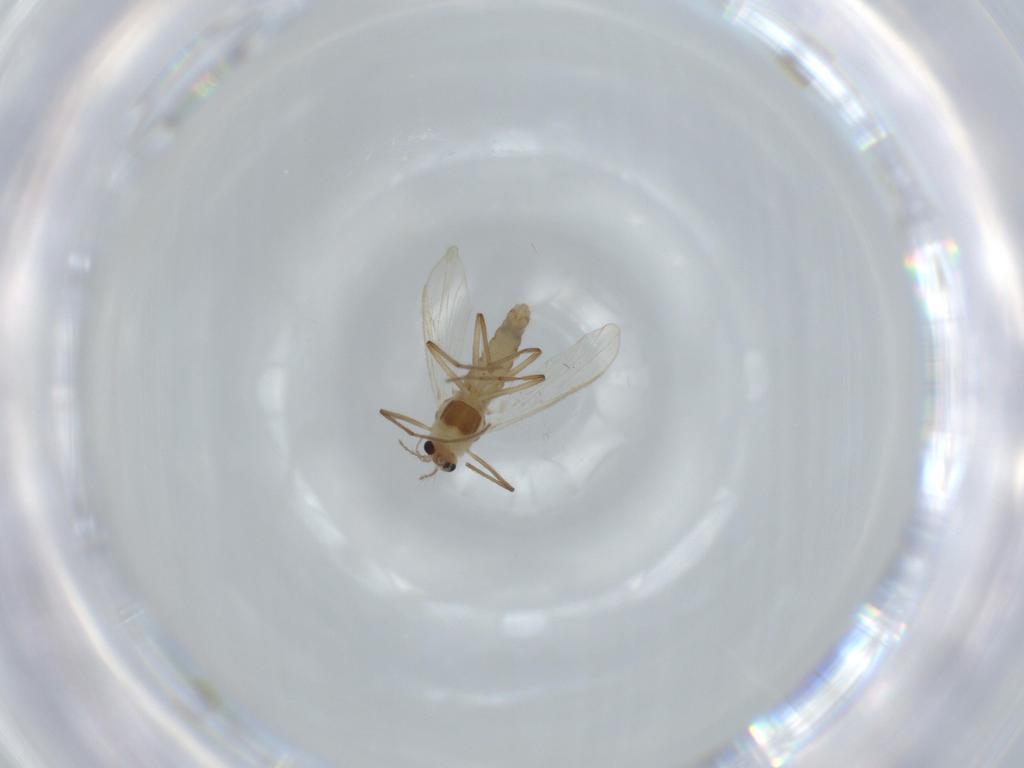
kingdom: Animalia
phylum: Arthropoda
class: Insecta
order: Diptera
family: Chironomidae
